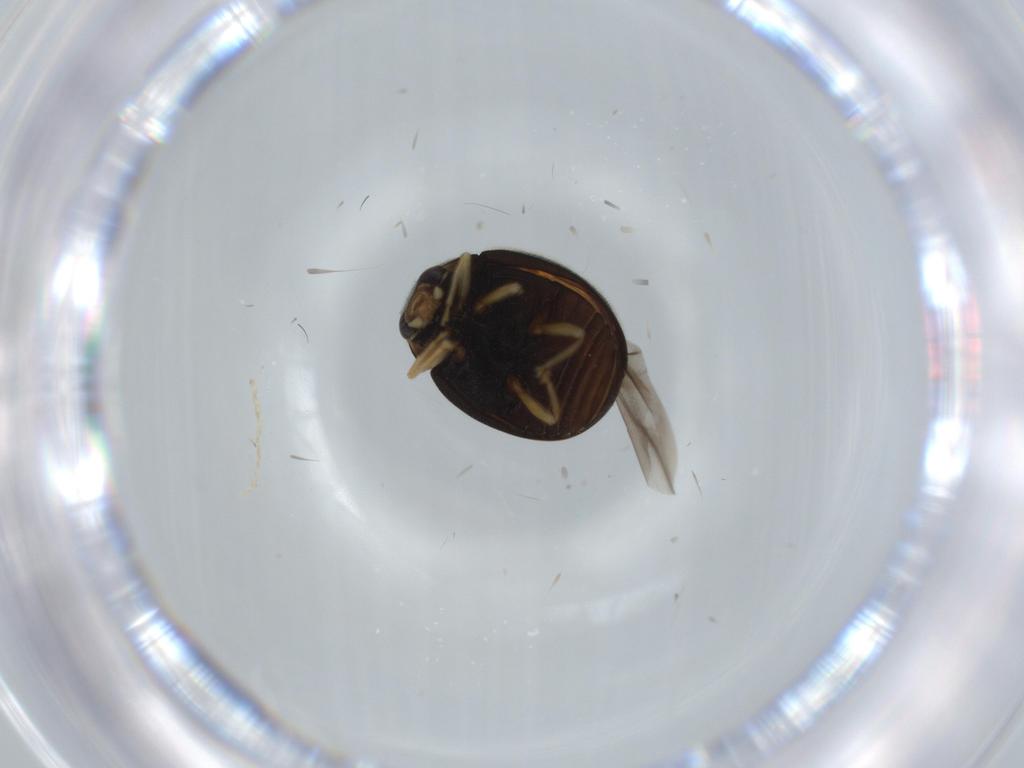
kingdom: Animalia
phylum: Arthropoda
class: Insecta
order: Coleoptera
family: Coccinellidae
